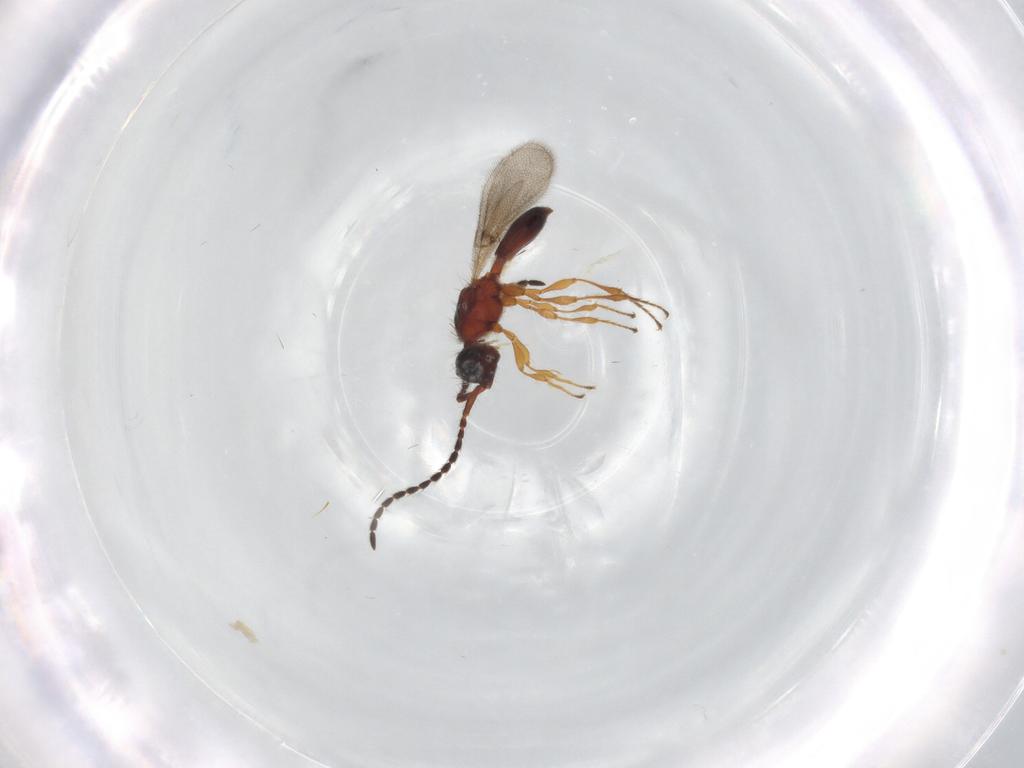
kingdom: Animalia
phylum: Arthropoda
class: Insecta
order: Hymenoptera
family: Diapriidae
